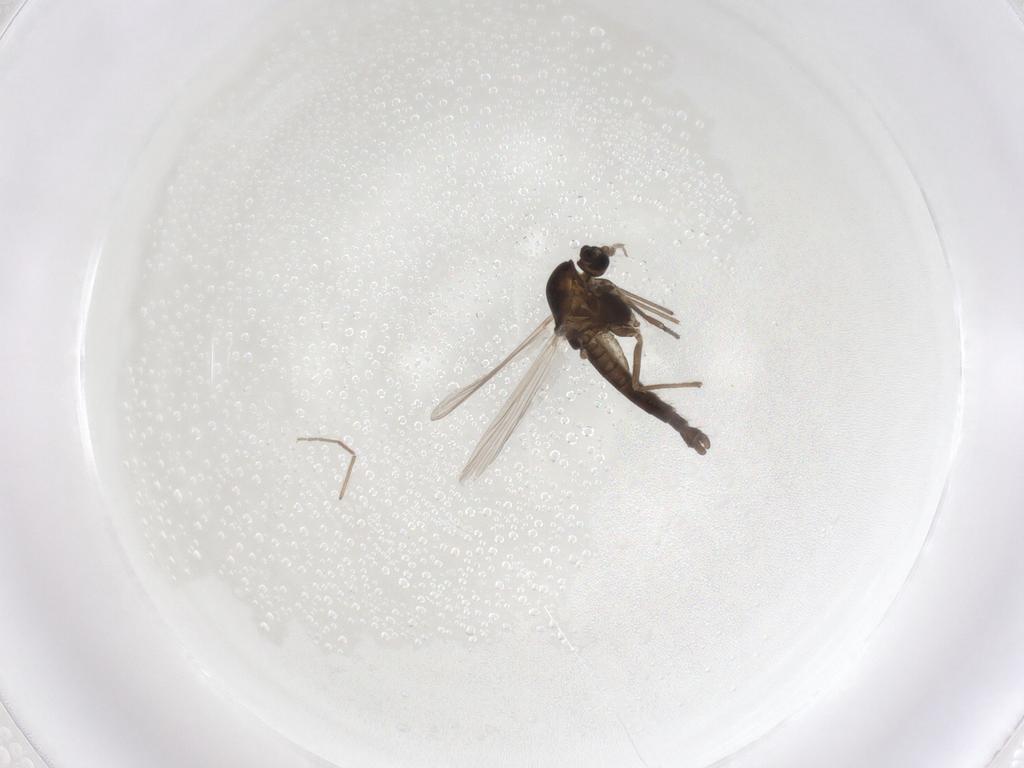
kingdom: Animalia
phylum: Arthropoda
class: Insecta
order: Diptera
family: Chironomidae
